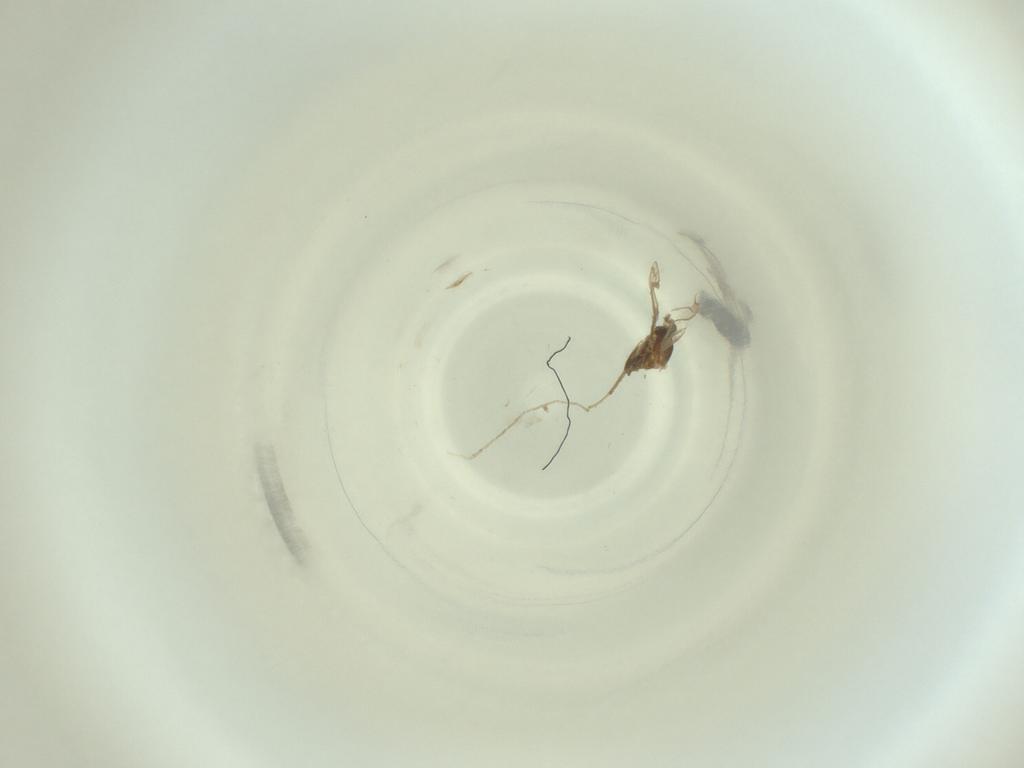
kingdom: Animalia
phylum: Arthropoda
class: Insecta
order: Diptera
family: Cecidomyiidae
